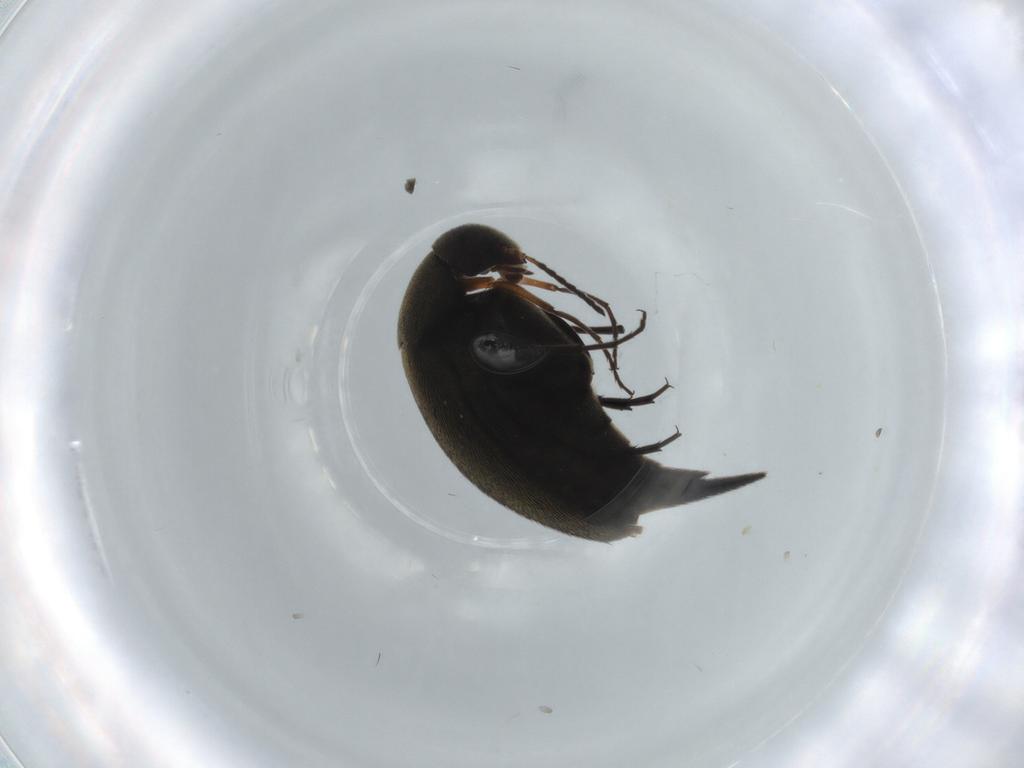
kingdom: Animalia
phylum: Arthropoda
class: Insecta
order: Coleoptera
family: Mordellidae
